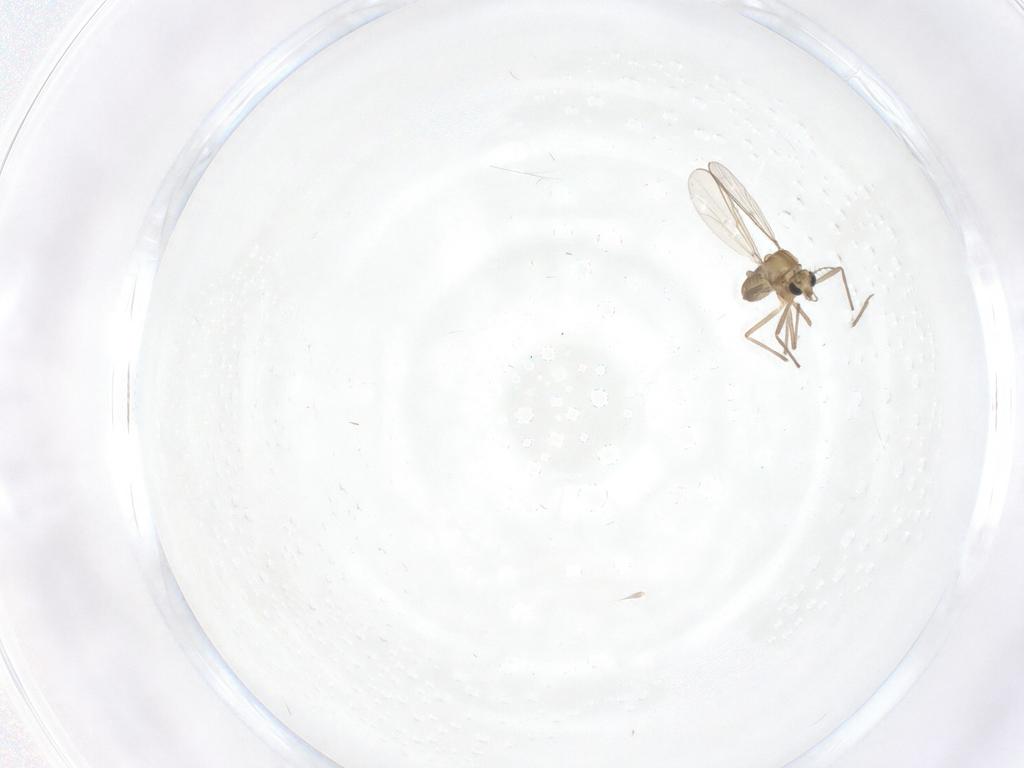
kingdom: Animalia
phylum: Arthropoda
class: Insecta
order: Diptera
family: Chironomidae
